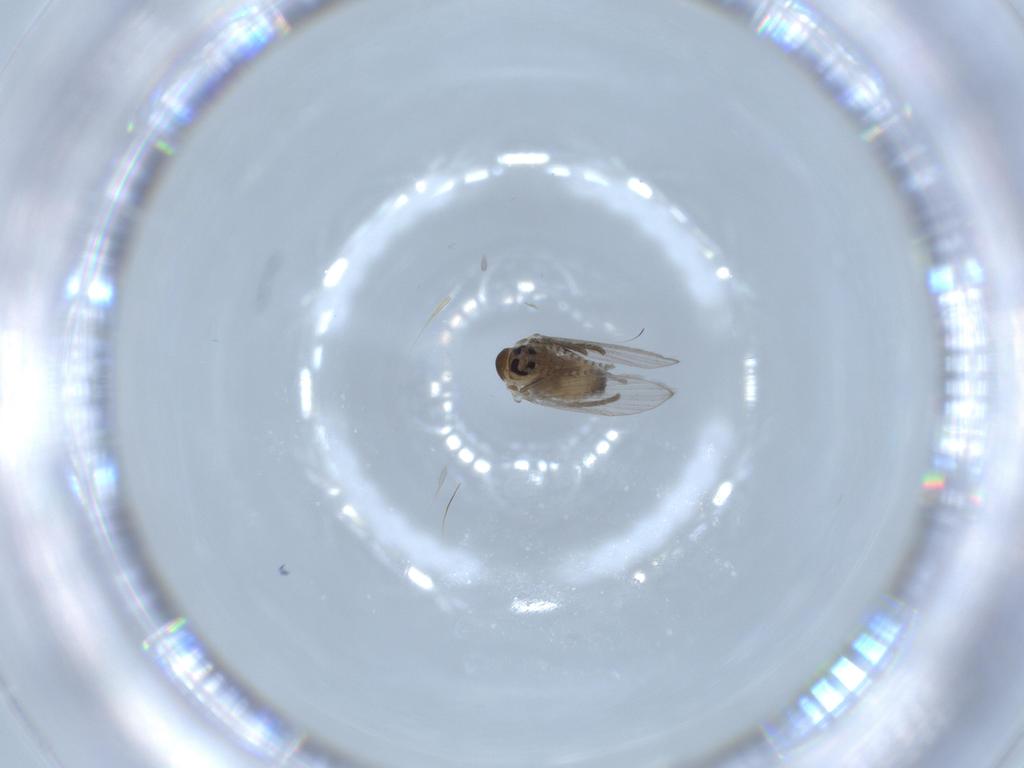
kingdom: Animalia
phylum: Arthropoda
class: Insecta
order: Diptera
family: Psychodidae
